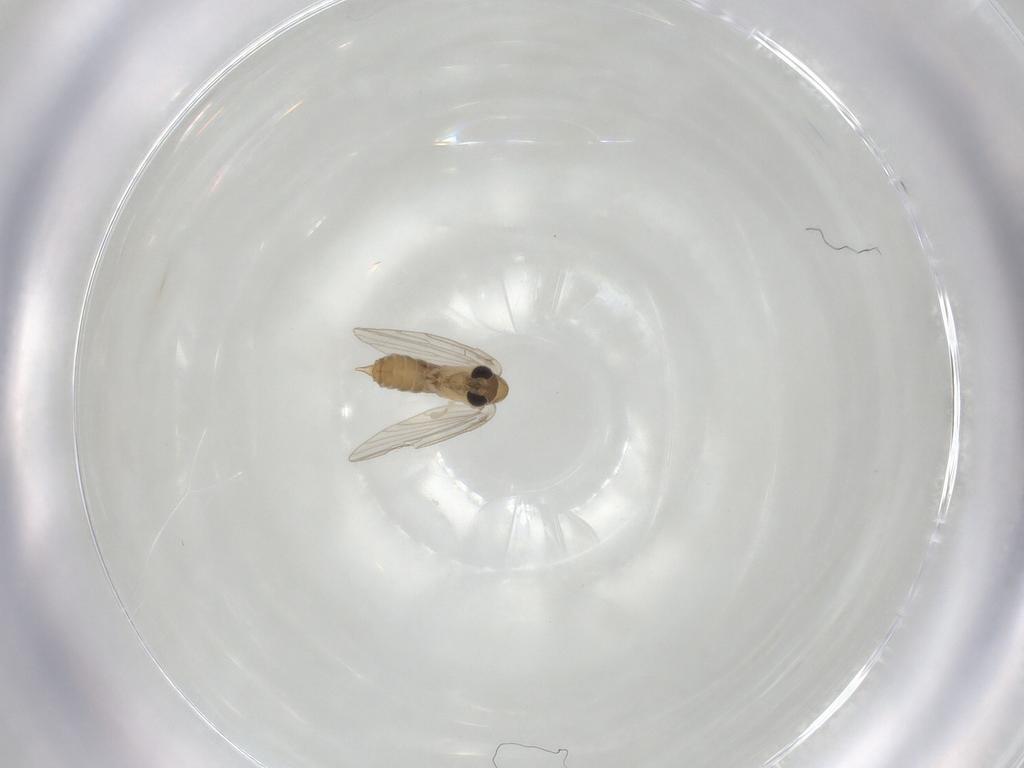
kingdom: Animalia
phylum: Arthropoda
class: Insecta
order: Diptera
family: Psychodidae
